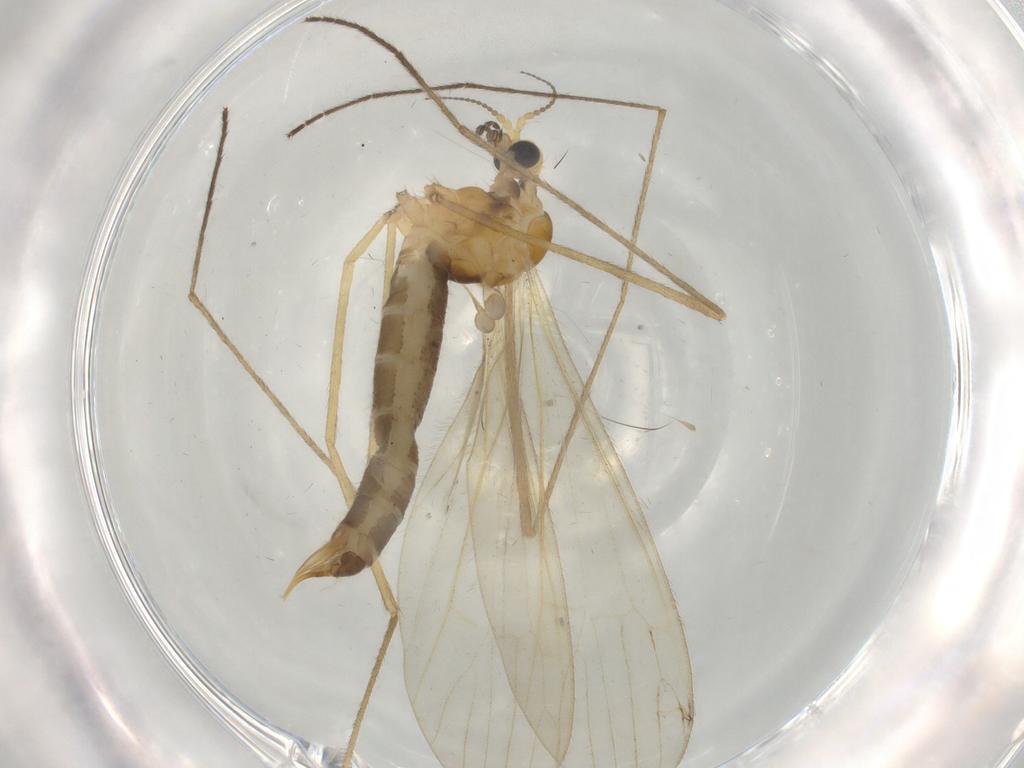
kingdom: Animalia
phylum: Arthropoda
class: Insecta
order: Diptera
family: Limoniidae
